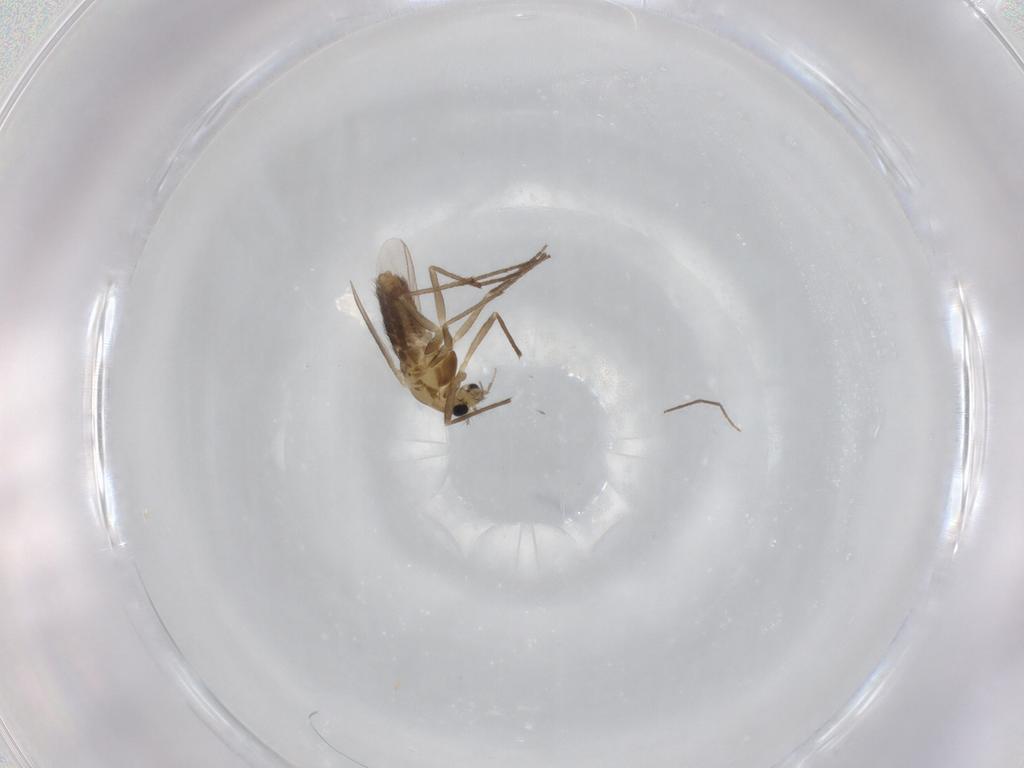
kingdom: Animalia
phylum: Arthropoda
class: Insecta
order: Diptera
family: Chironomidae
